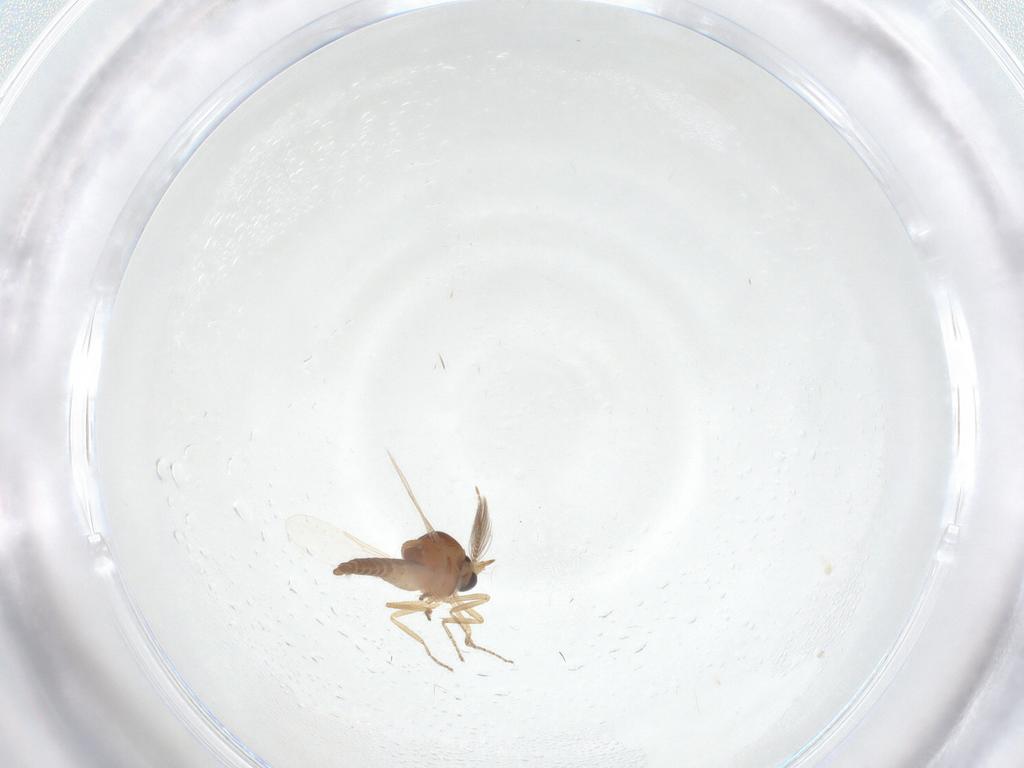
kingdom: Animalia
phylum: Arthropoda
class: Insecta
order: Diptera
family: Ceratopogonidae
